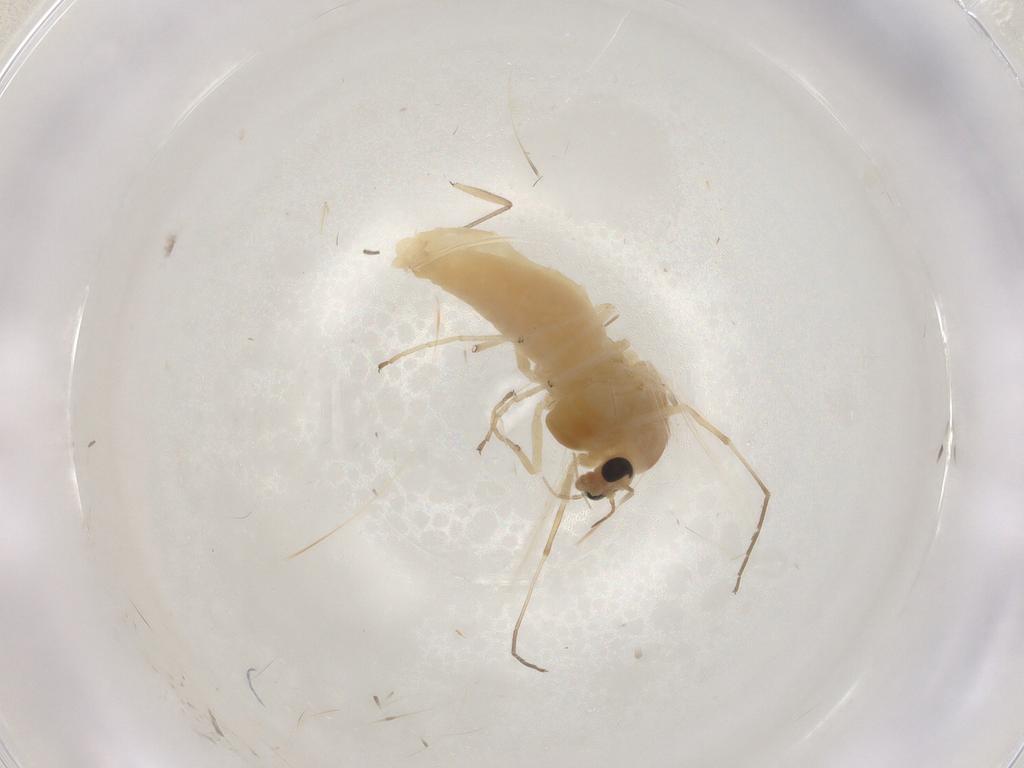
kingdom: Animalia
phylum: Arthropoda
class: Insecta
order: Diptera
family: Chironomidae
